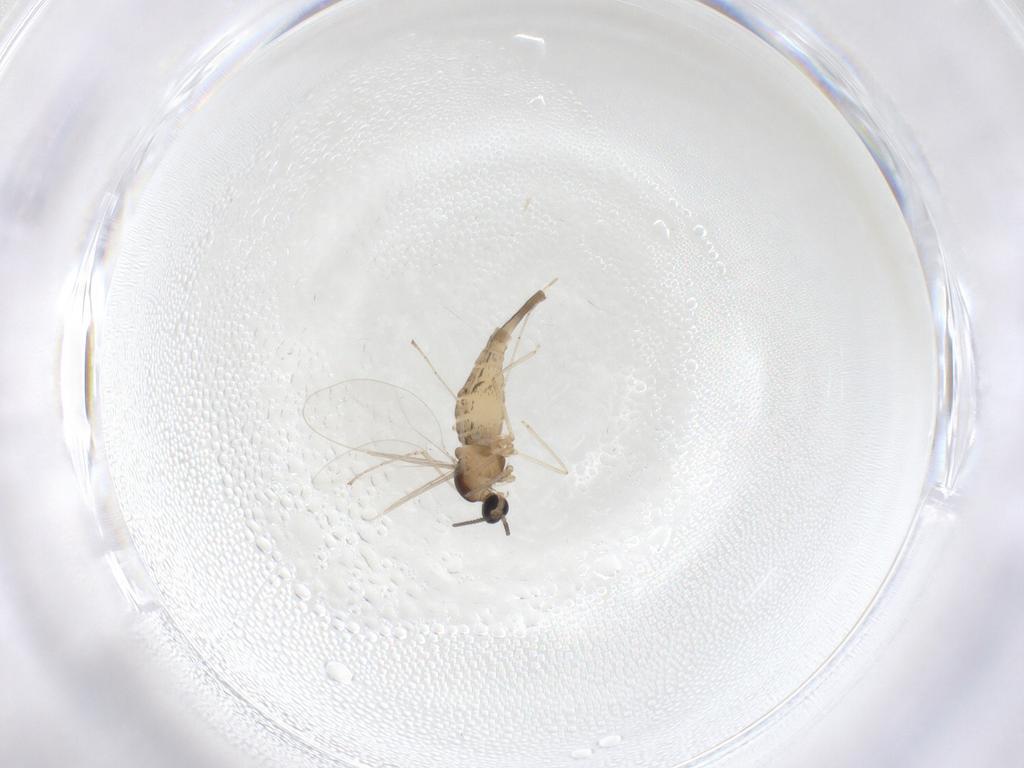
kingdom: Animalia
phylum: Arthropoda
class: Insecta
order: Diptera
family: Cecidomyiidae
